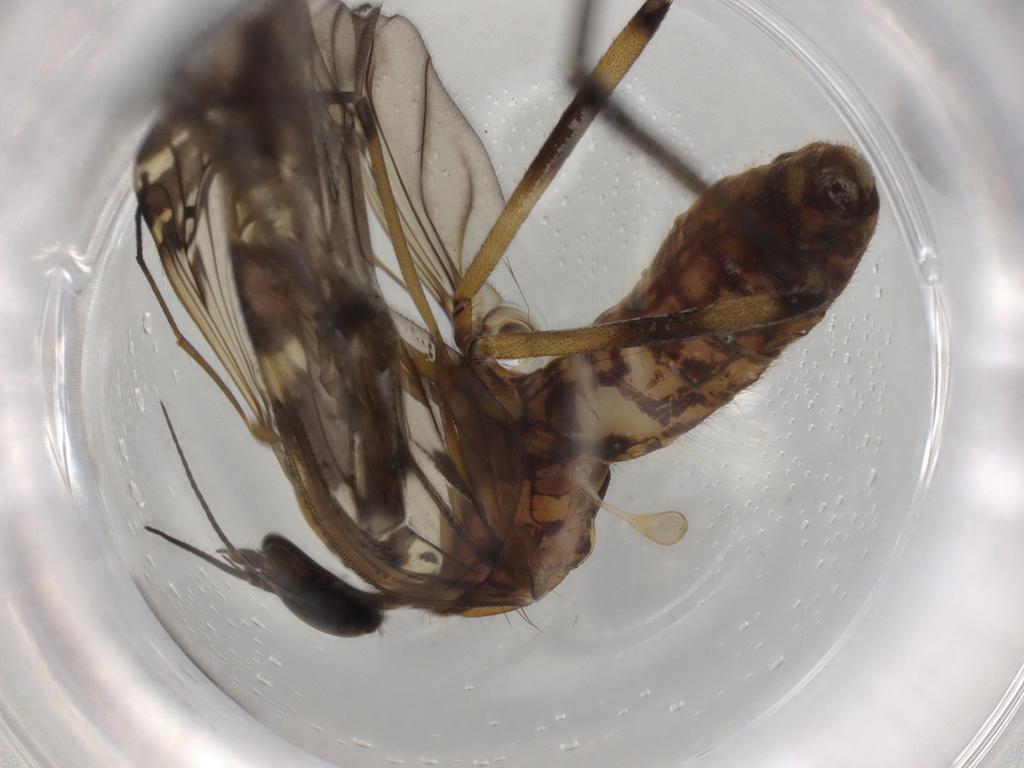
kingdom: Animalia
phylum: Arthropoda
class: Insecta
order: Diptera
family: Anisopodidae
